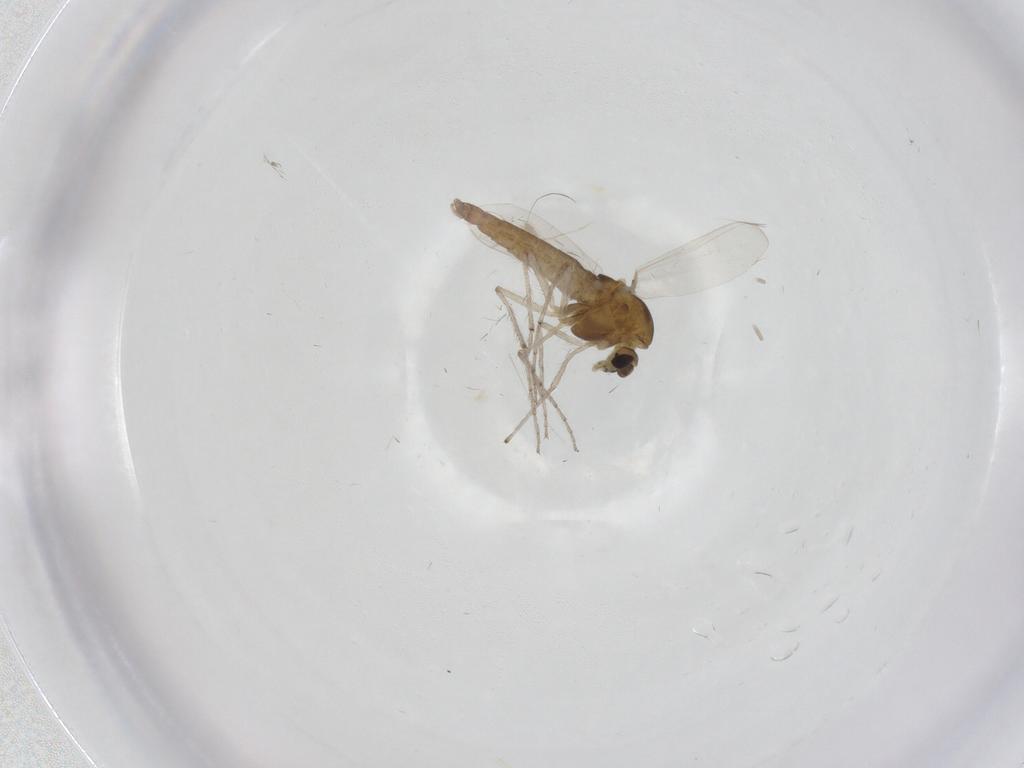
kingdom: Animalia
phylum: Arthropoda
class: Insecta
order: Diptera
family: Chironomidae
